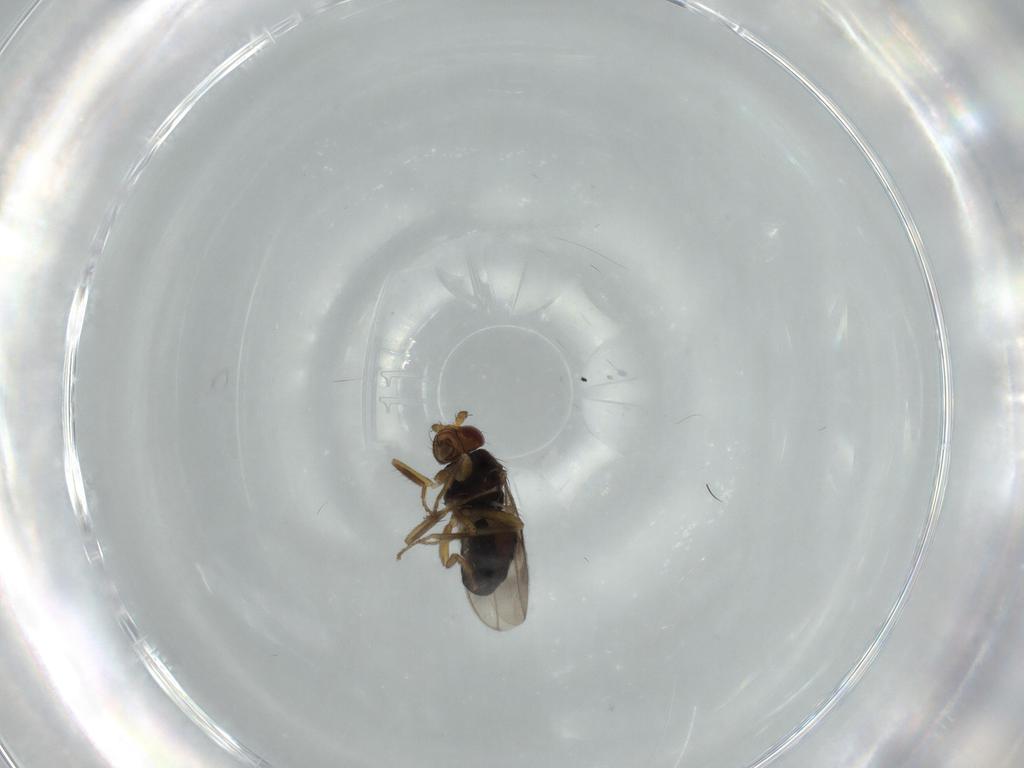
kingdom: Animalia
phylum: Arthropoda
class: Insecta
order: Diptera
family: Sphaeroceridae
